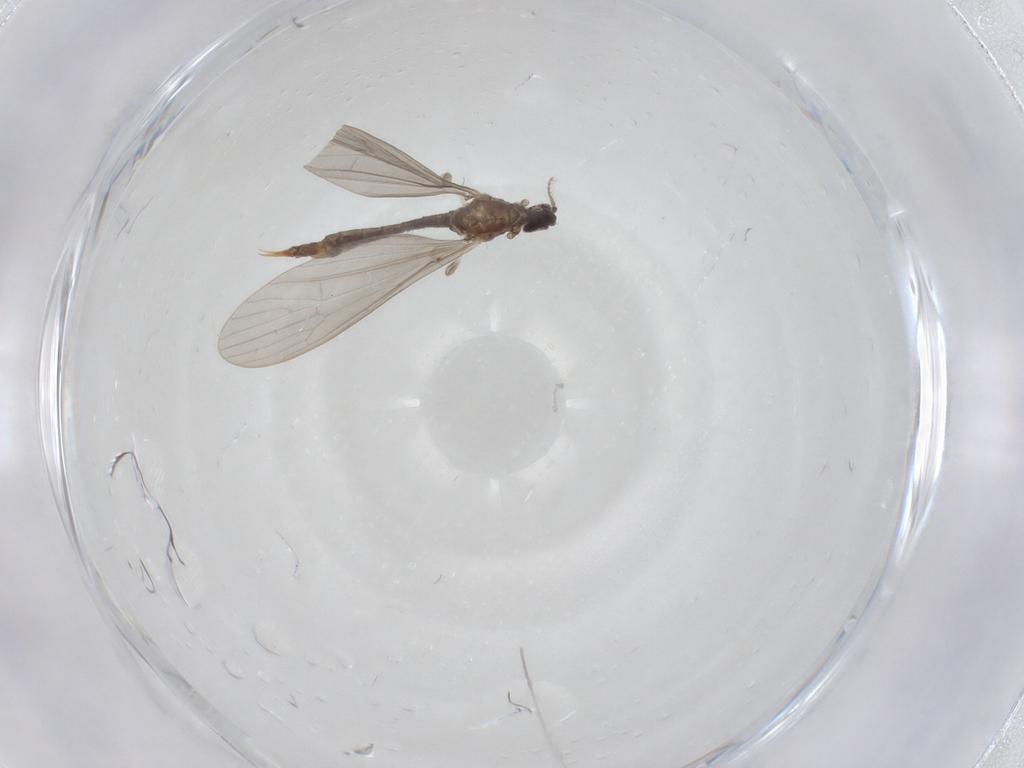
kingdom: Animalia
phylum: Arthropoda
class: Insecta
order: Diptera
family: Limoniidae
